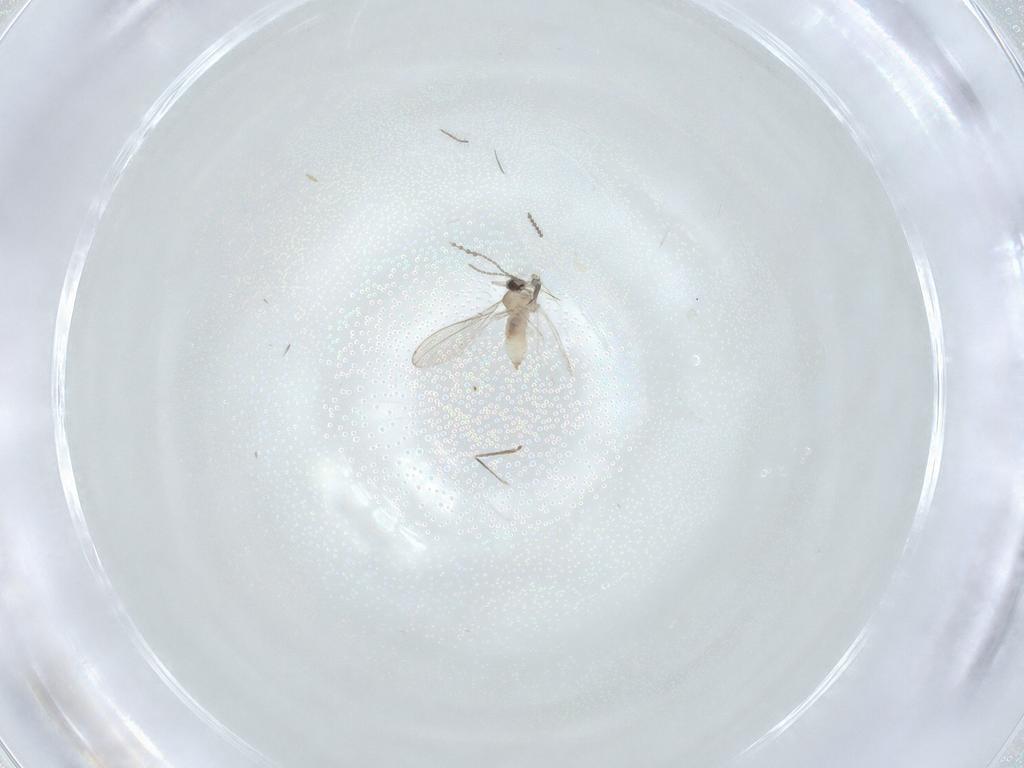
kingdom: Animalia
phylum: Arthropoda
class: Insecta
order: Diptera
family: Cecidomyiidae
